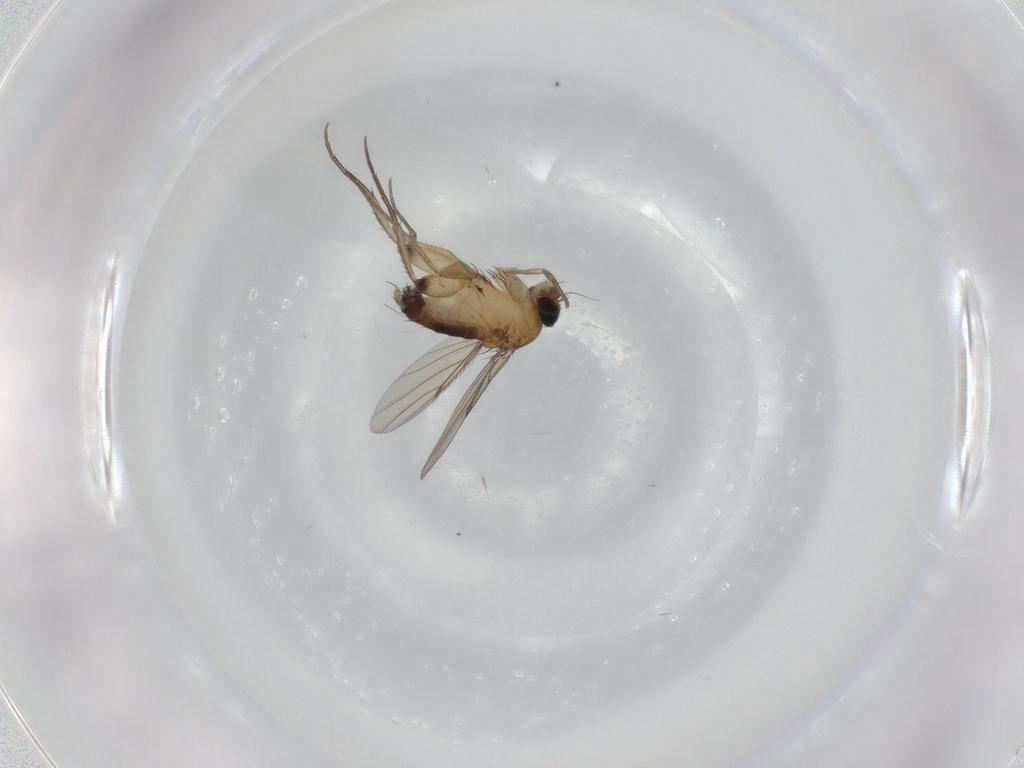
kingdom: Animalia
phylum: Arthropoda
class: Insecta
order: Diptera
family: Phoridae
